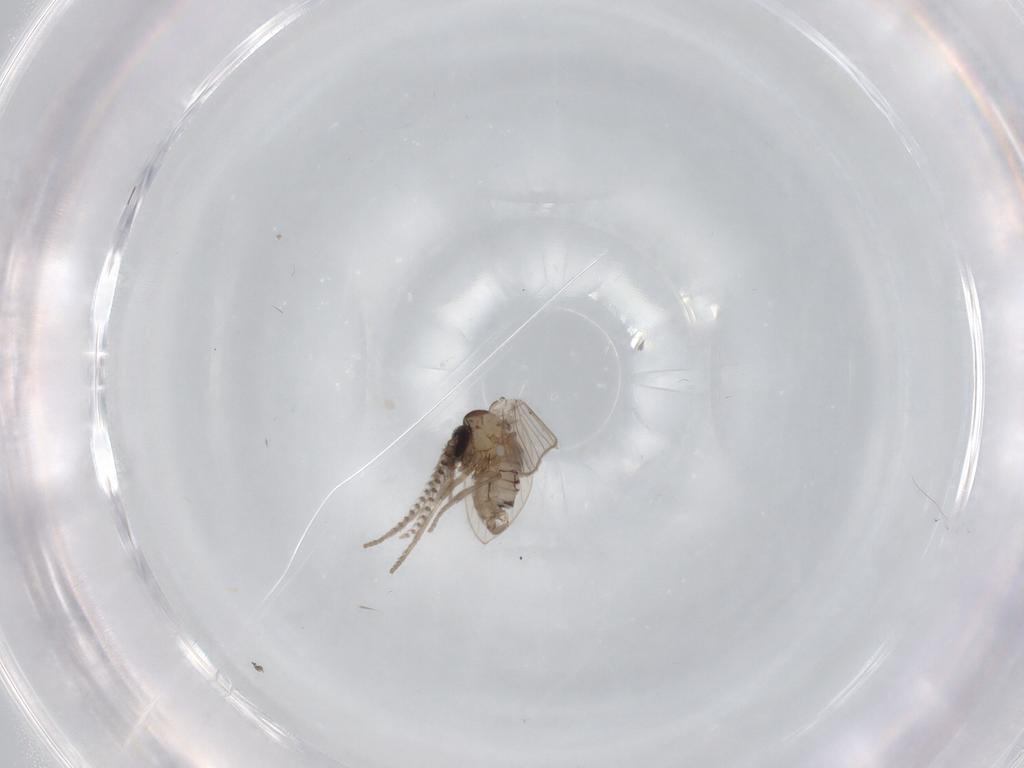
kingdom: Animalia
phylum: Arthropoda
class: Insecta
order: Diptera
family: Psychodidae
